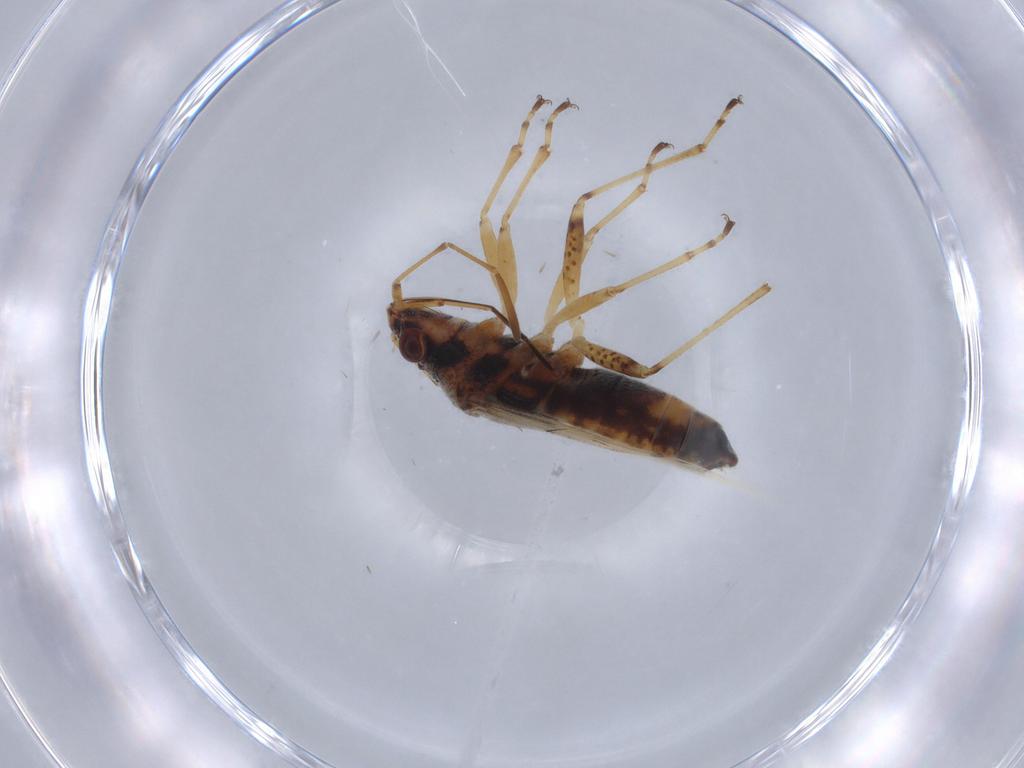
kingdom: Animalia
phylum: Arthropoda
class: Insecta
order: Hemiptera
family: Lygaeidae
